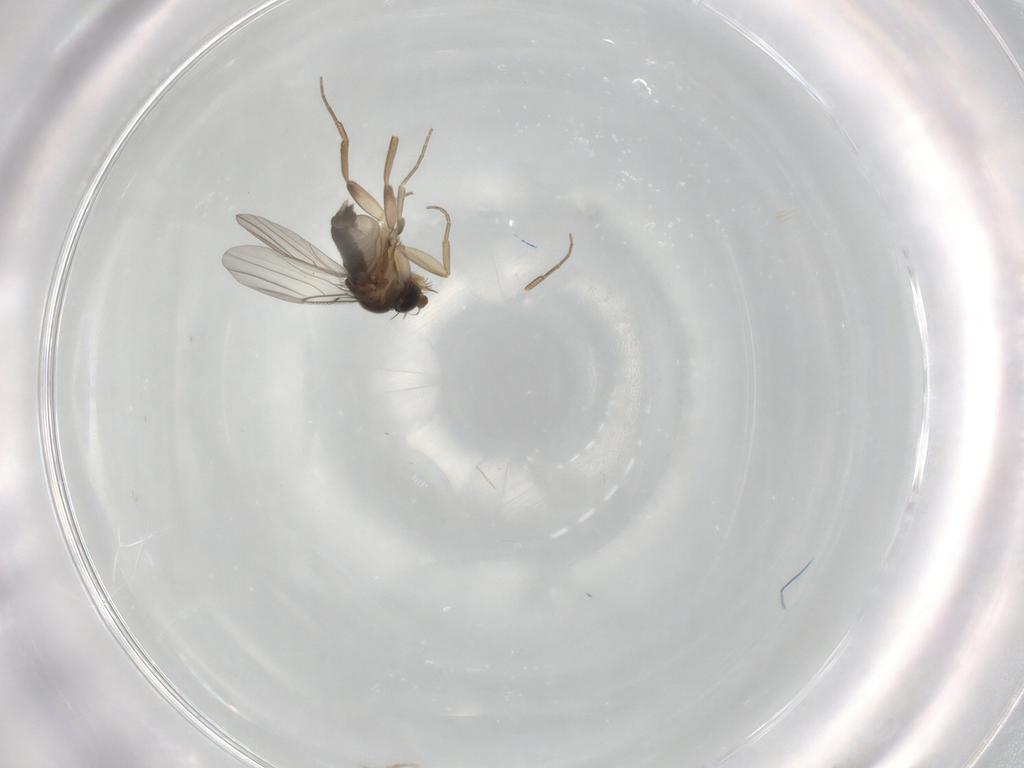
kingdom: Animalia
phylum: Arthropoda
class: Insecta
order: Diptera
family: Phoridae
